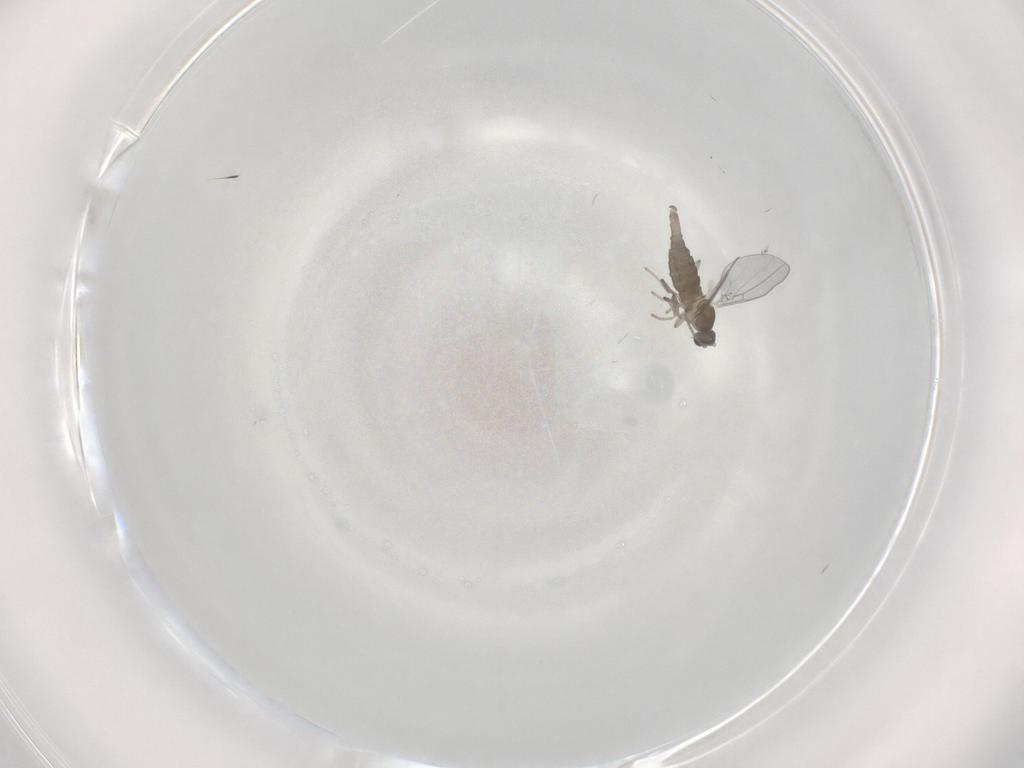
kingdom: Animalia
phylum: Arthropoda
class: Insecta
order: Diptera
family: Cecidomyiidae
